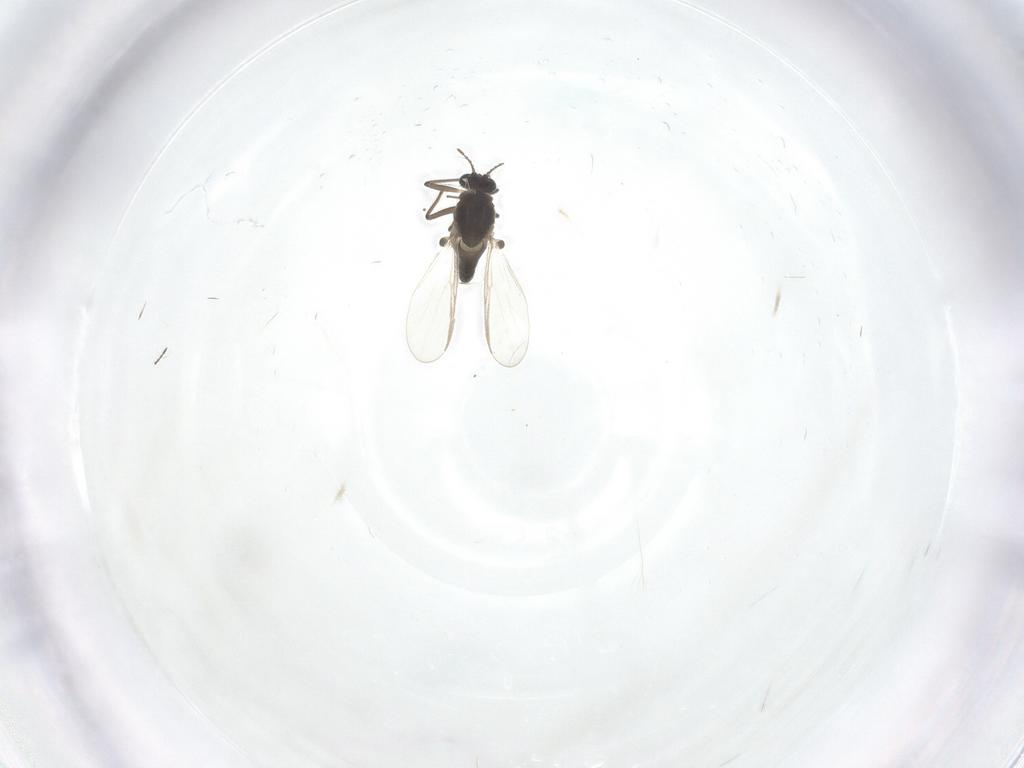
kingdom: Animalia
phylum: Arthropoda
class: Insecta
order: Diptera
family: Chironomidae
